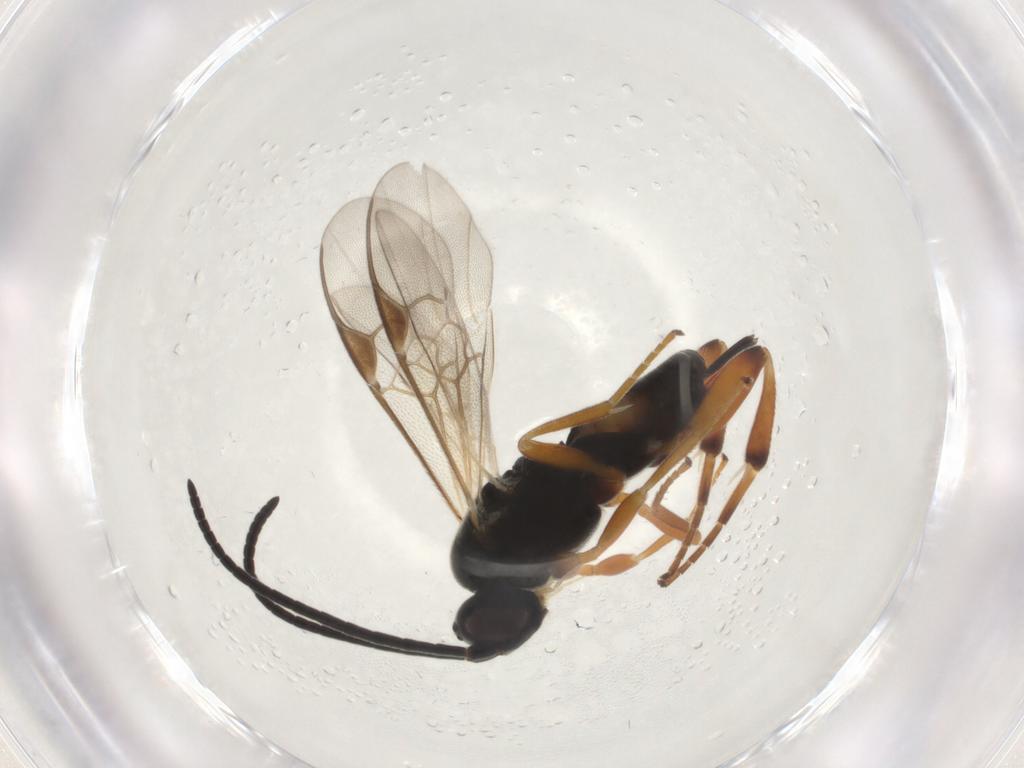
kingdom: Animalia
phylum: Arthropoda
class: Insecta
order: Hymenoptera
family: Braconidae
